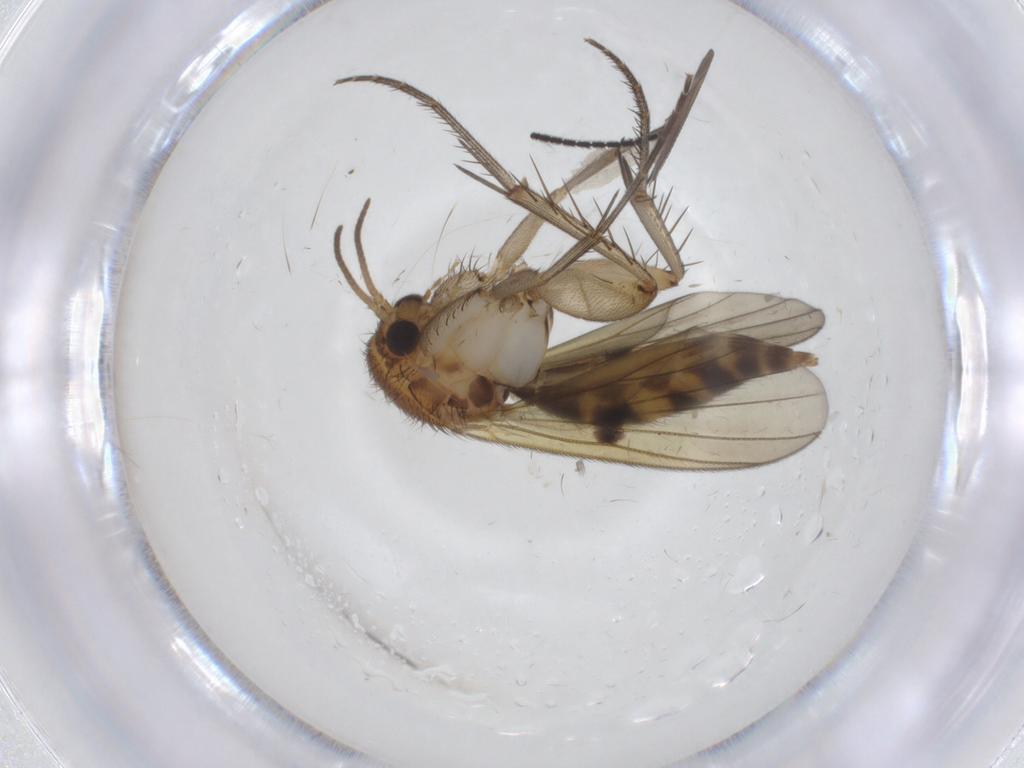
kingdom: Animalia
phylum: Arthropoda
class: Insecta
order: Diptera
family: Mycetophilidae
